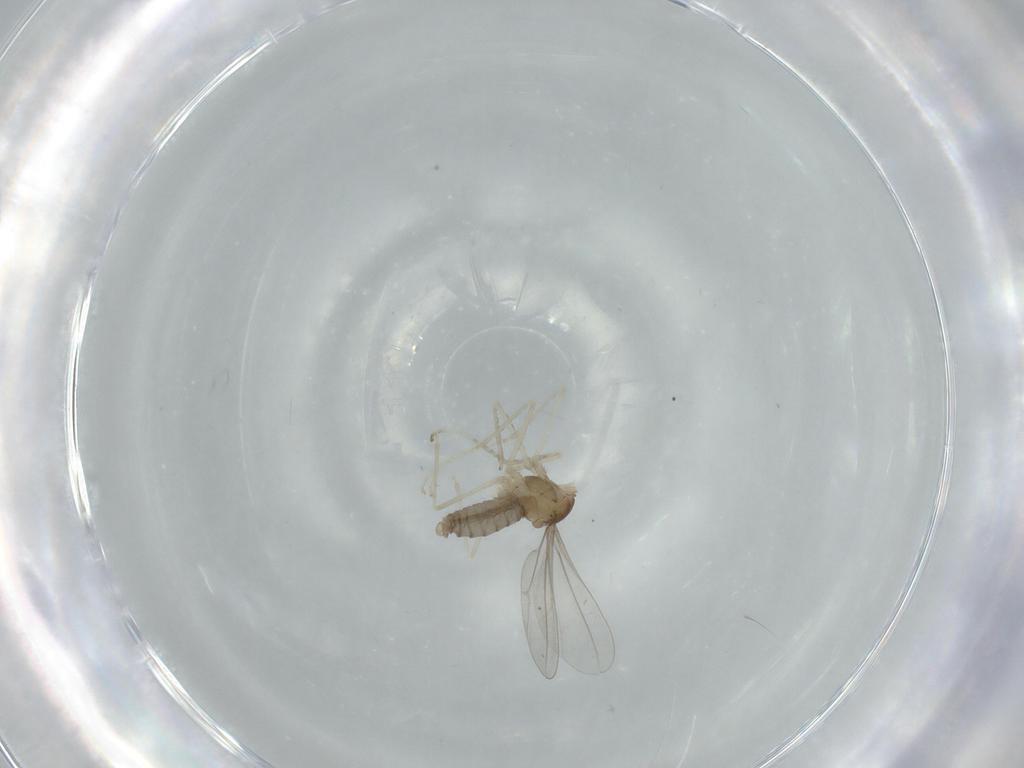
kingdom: Animalia
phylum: Arthropoda
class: Insecta
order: Diptera
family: Cecidomyiidae
